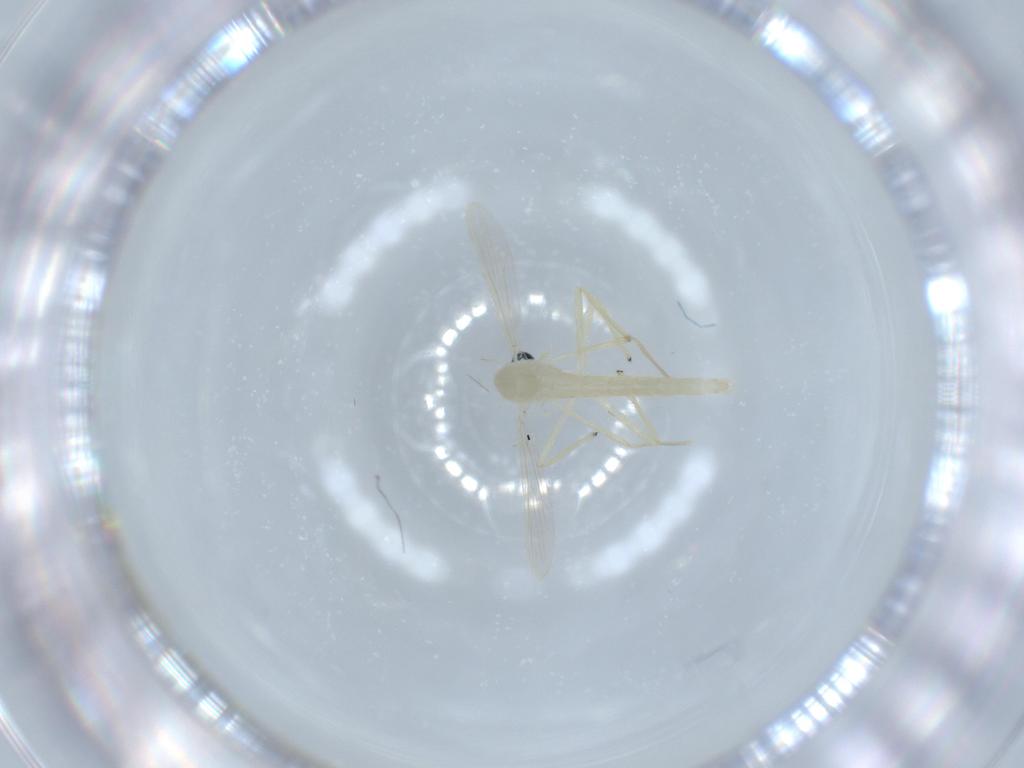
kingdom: Animalia
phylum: Arthropoda
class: Insecta
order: Diptera
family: Chironomidae
